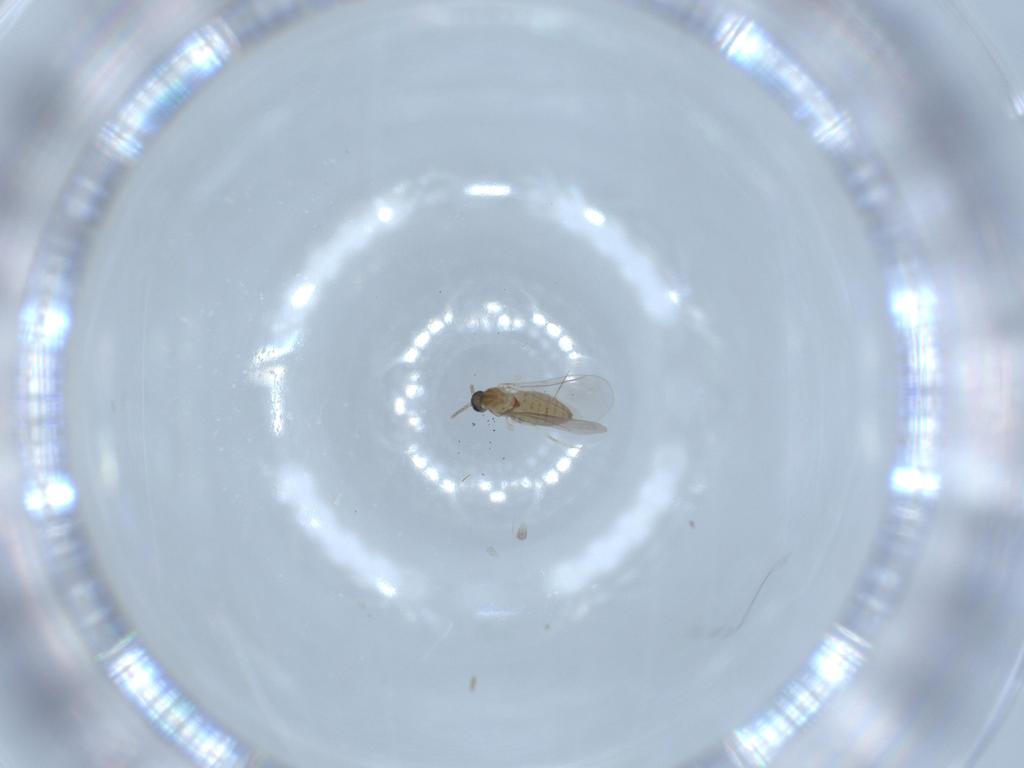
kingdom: Animalia
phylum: Arthropoda
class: Insecta
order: Diptera
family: Cecidomyiidae
